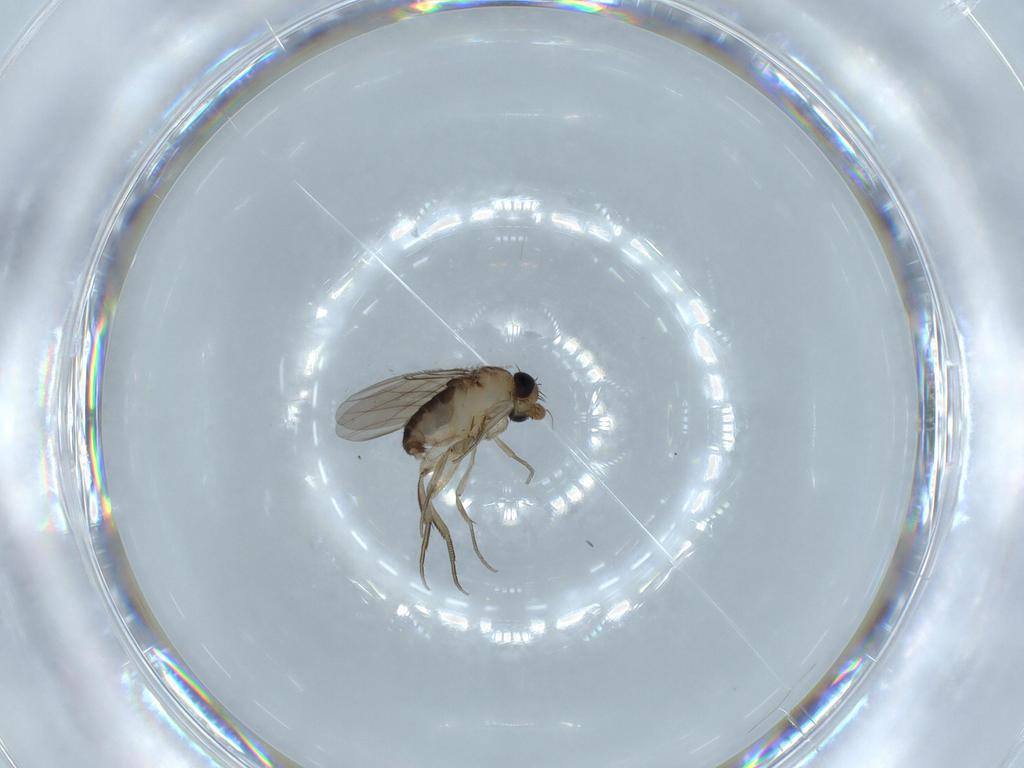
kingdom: Animalia
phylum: Arthropoda
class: Insecta
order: Diptera
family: Phoridae
